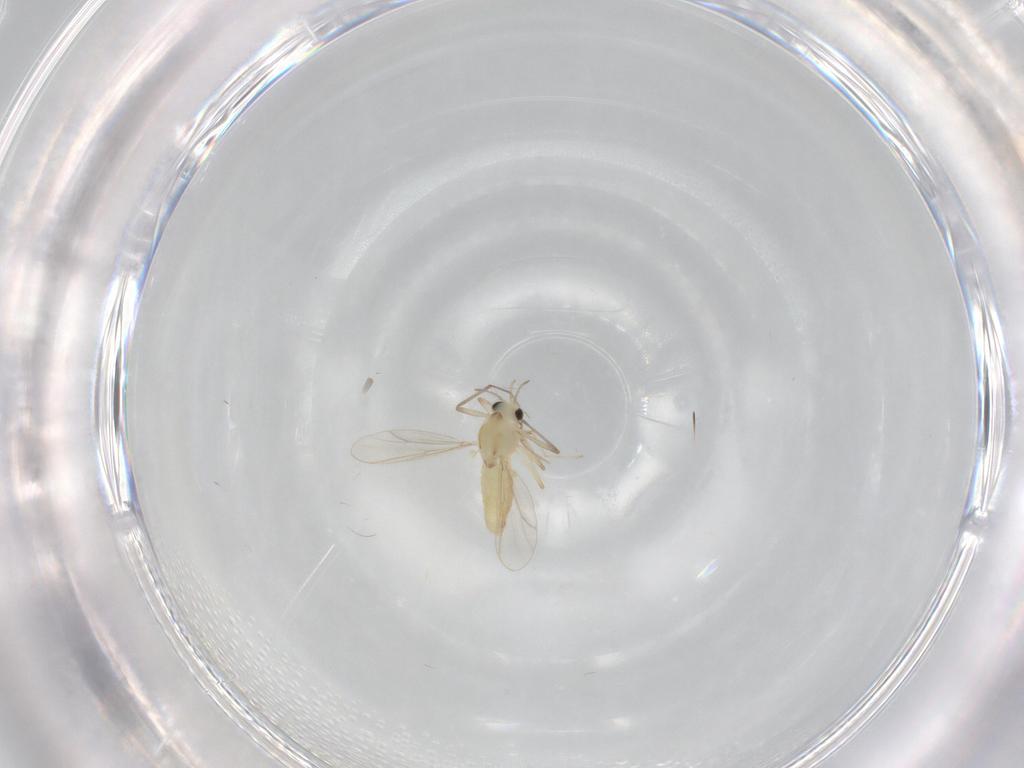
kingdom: Animalia
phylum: Arthropoda
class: Insecta
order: Diptera
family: Chironomidae
